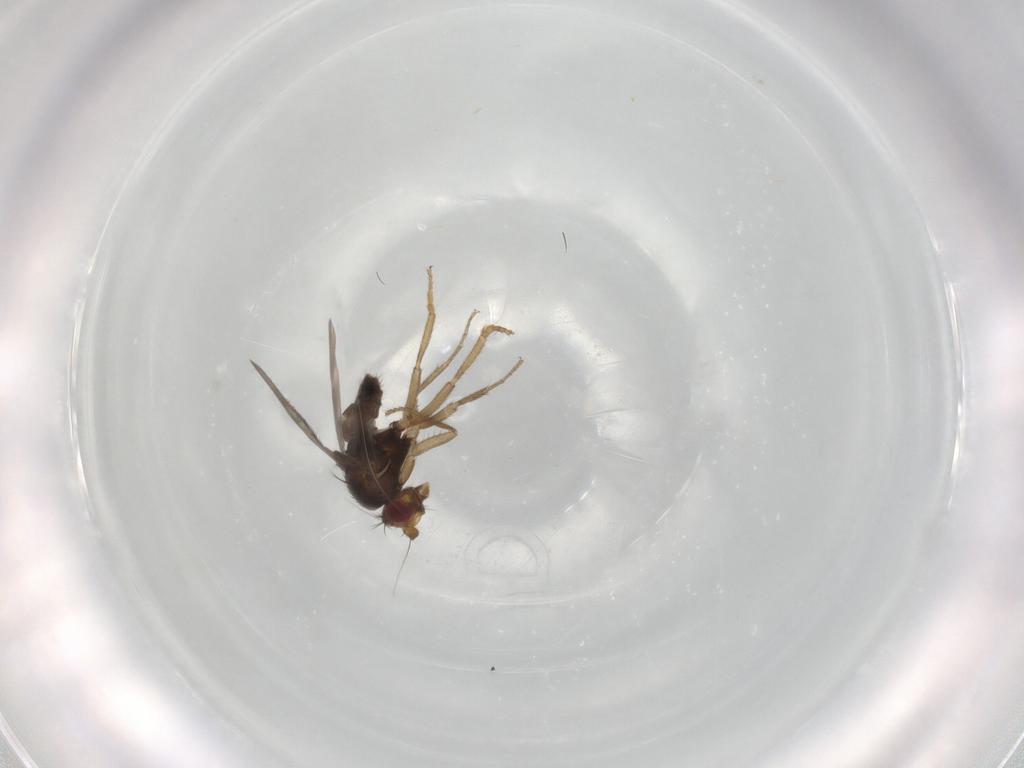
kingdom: Animalia
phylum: Arthropoda
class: Insecta
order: Diptera
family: Sphaeroceridae
